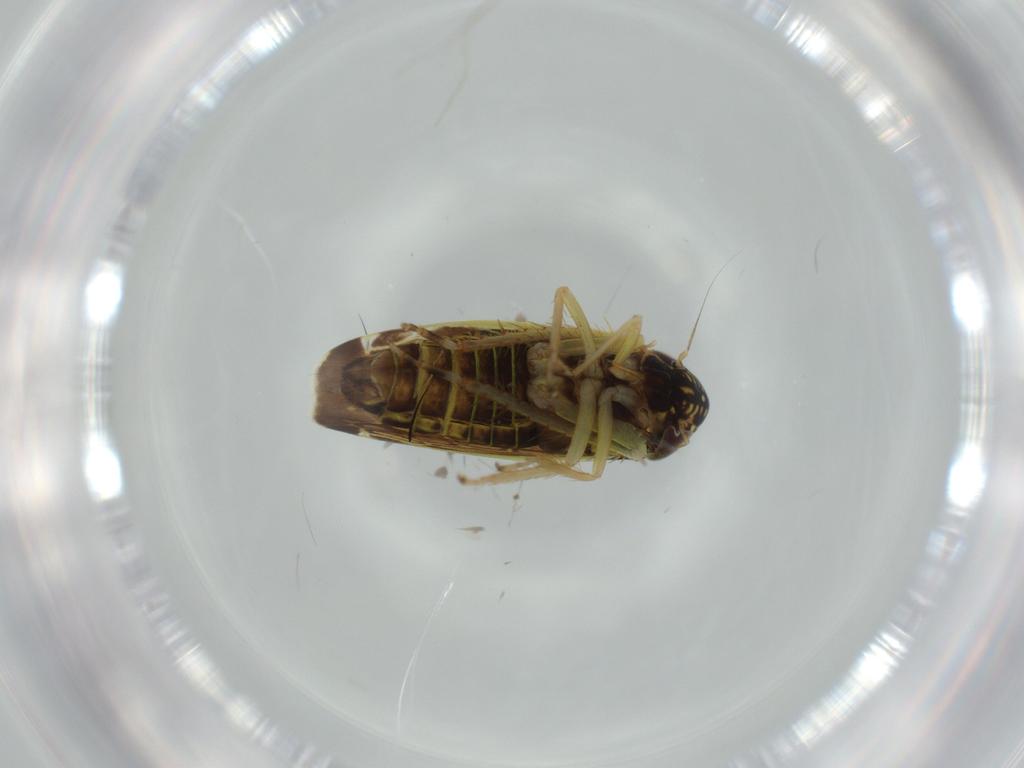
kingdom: Animalia
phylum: Arthropoda
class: Insecta
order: Hemiptera
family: Cicadellidae
